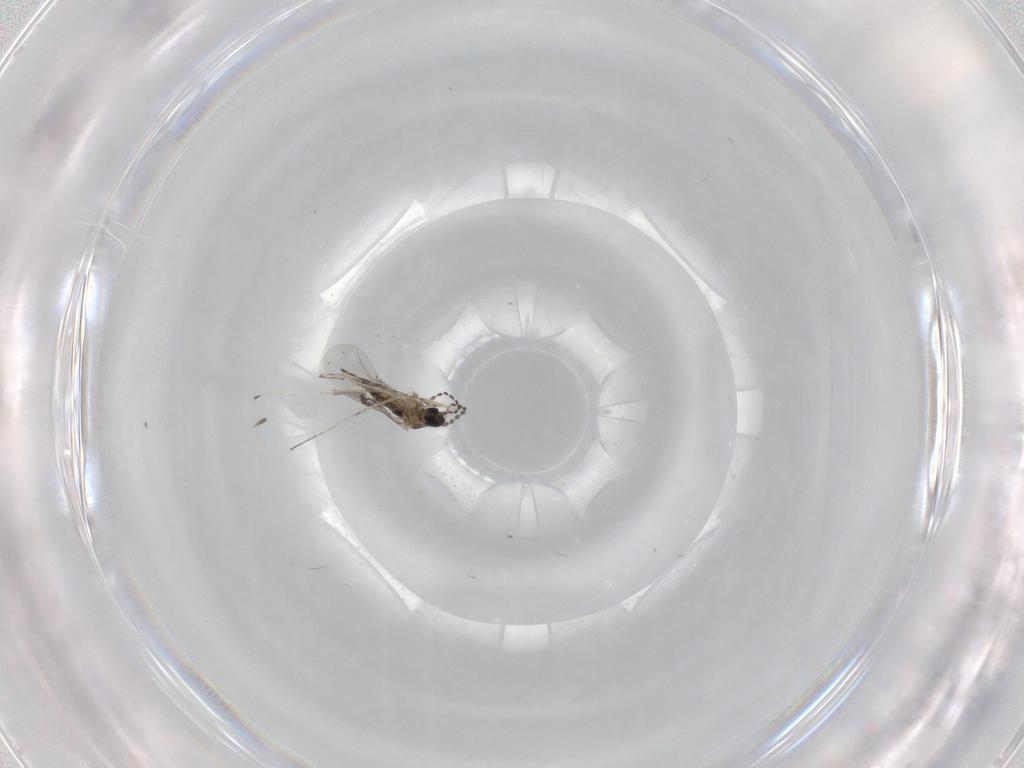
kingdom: Animalia
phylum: Arthropoda
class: Insecta
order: Diptera
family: Cecidomyiidae
